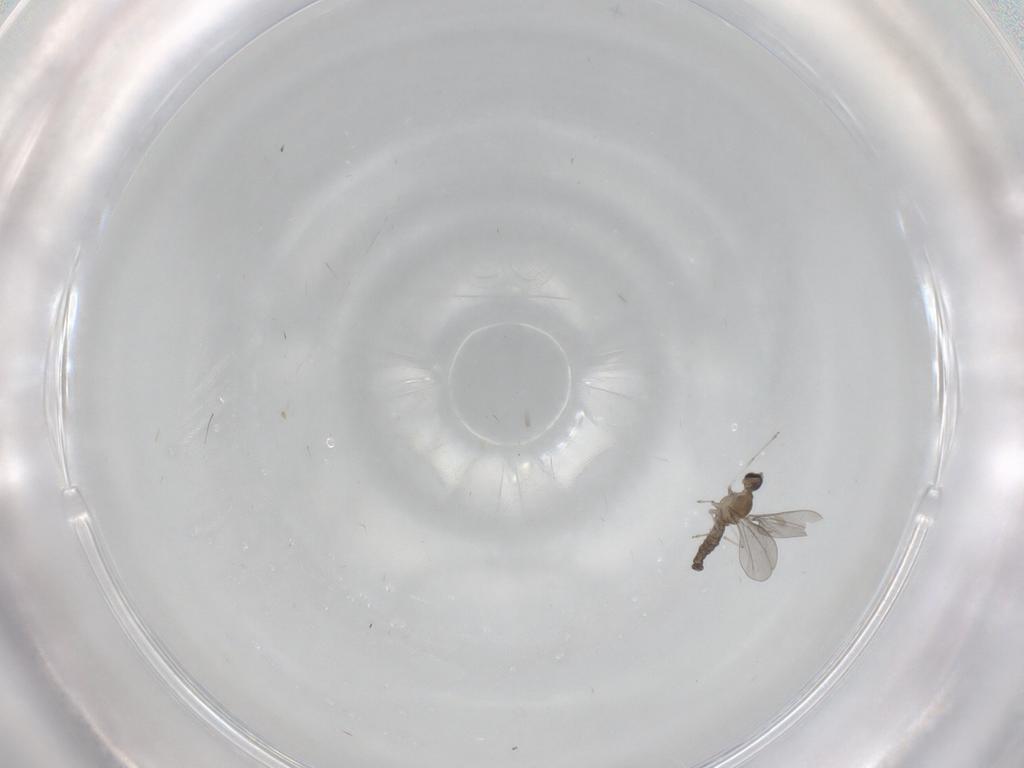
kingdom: Animalia
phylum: Arthropoda
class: Insecta
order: Diptera
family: Cecidomyiidae
